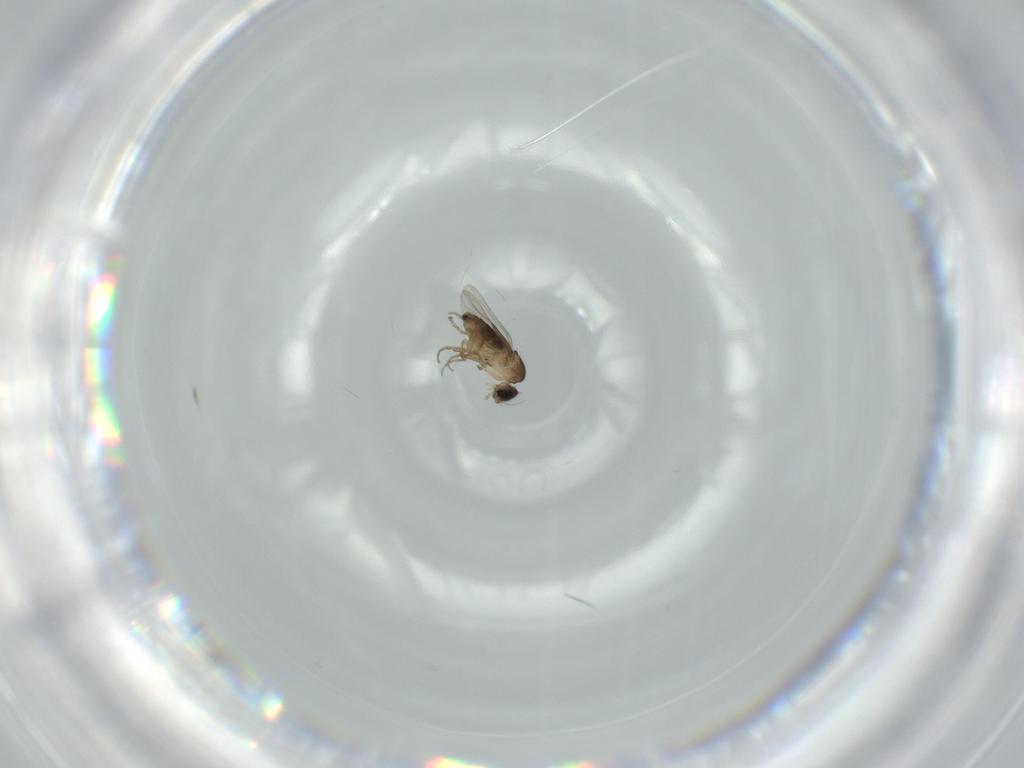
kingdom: Animalia
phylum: Arthropoda
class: Insecta
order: Diptera
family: Phoridae
